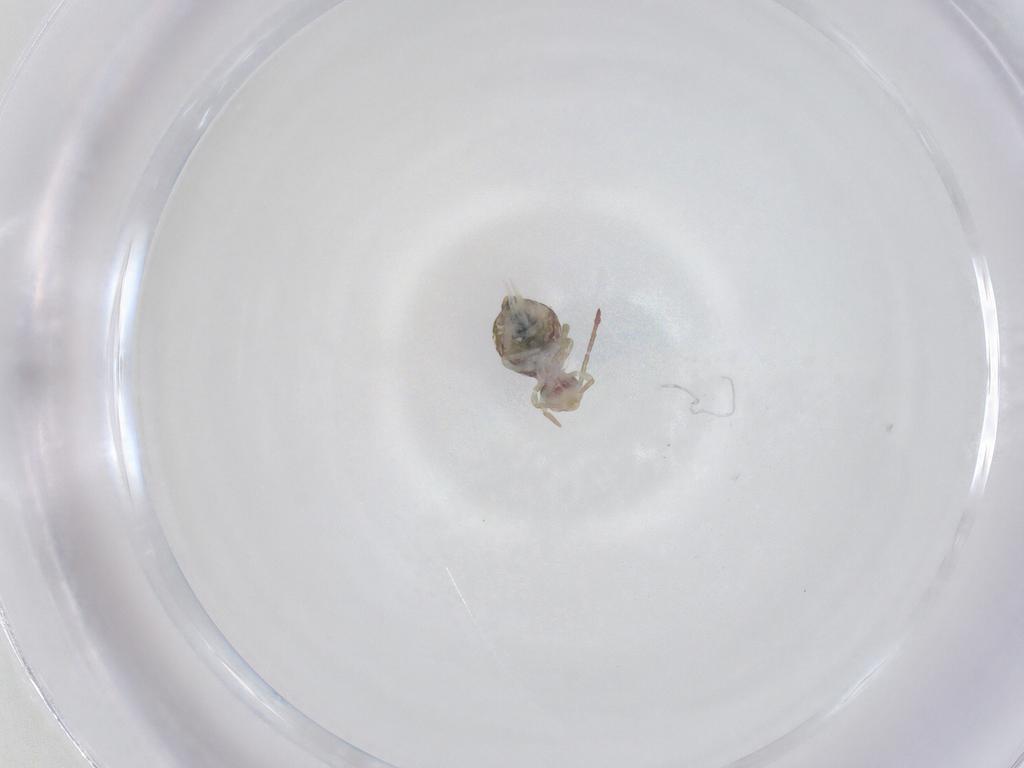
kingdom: Animalia
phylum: Arthropoda
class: Collembola
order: Symphypleona
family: Dicyrtomidae
